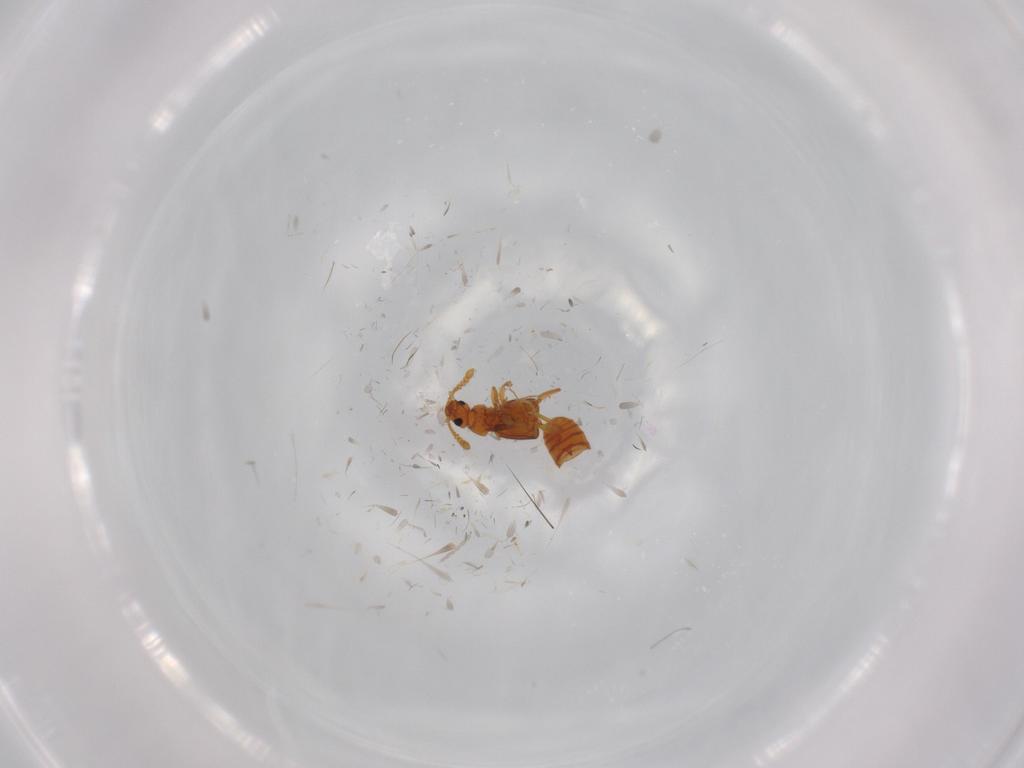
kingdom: Animalia
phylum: Arthropoda
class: Insecta
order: Coleoptera
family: Staphylinidae
